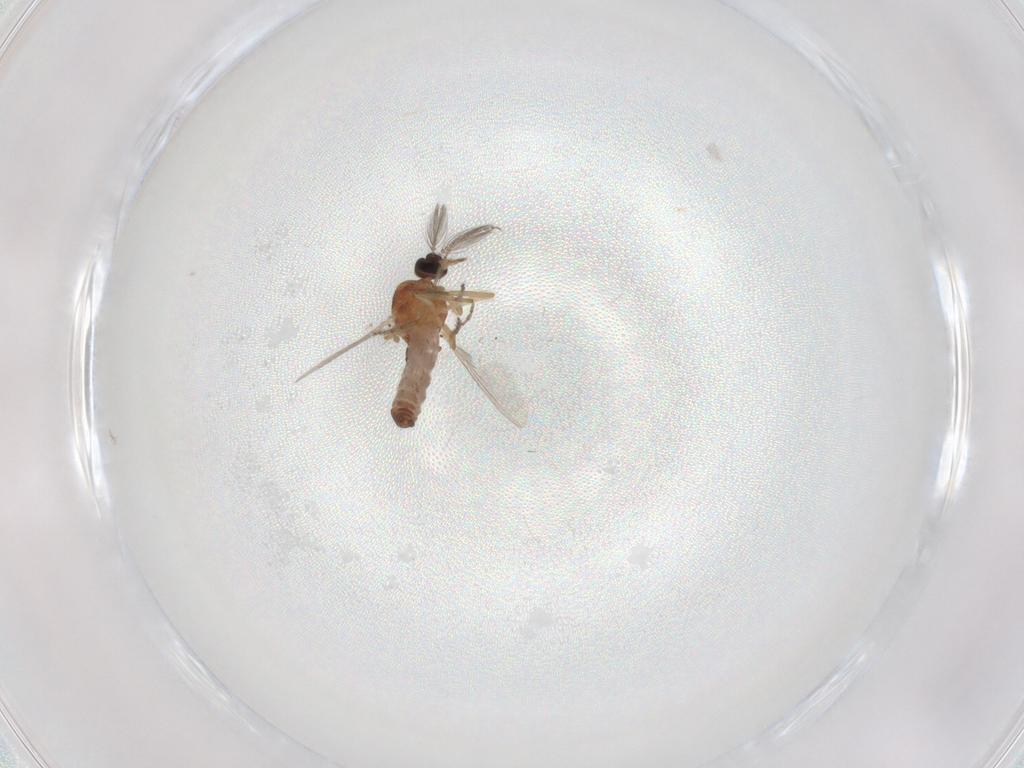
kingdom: Animalia
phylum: Arthropoda
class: Insecta
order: Diptera
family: Ceratopogonidae
